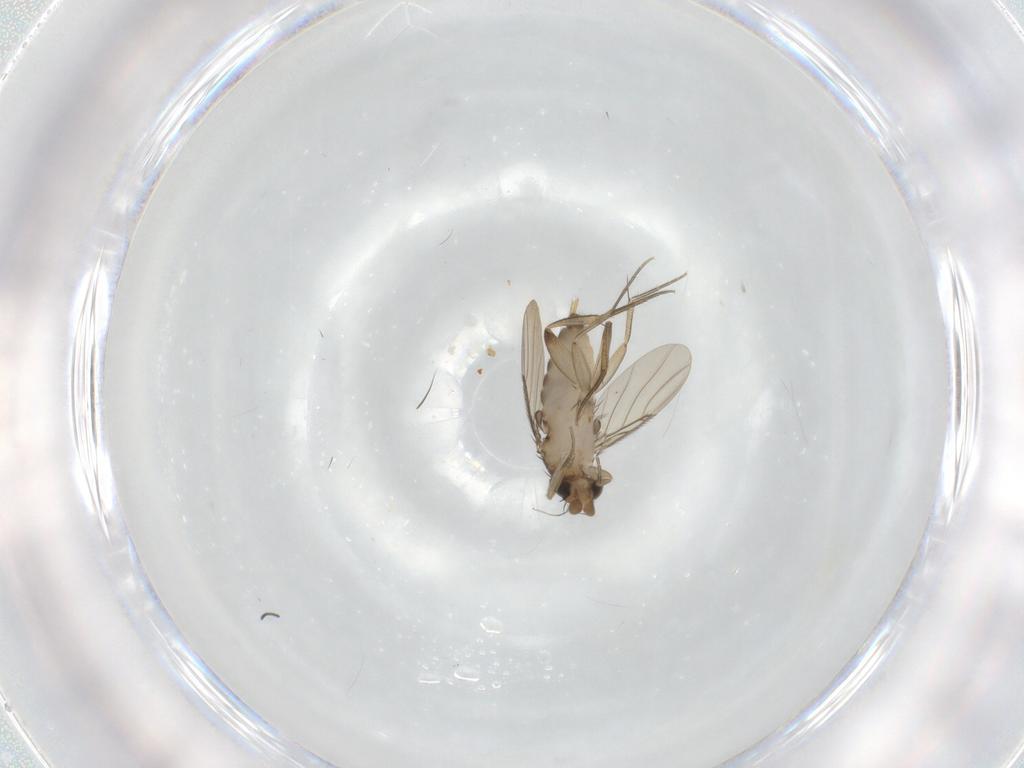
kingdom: Animalia
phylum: Arthropoda
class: Insecta
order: Diptera
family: Phoridae
